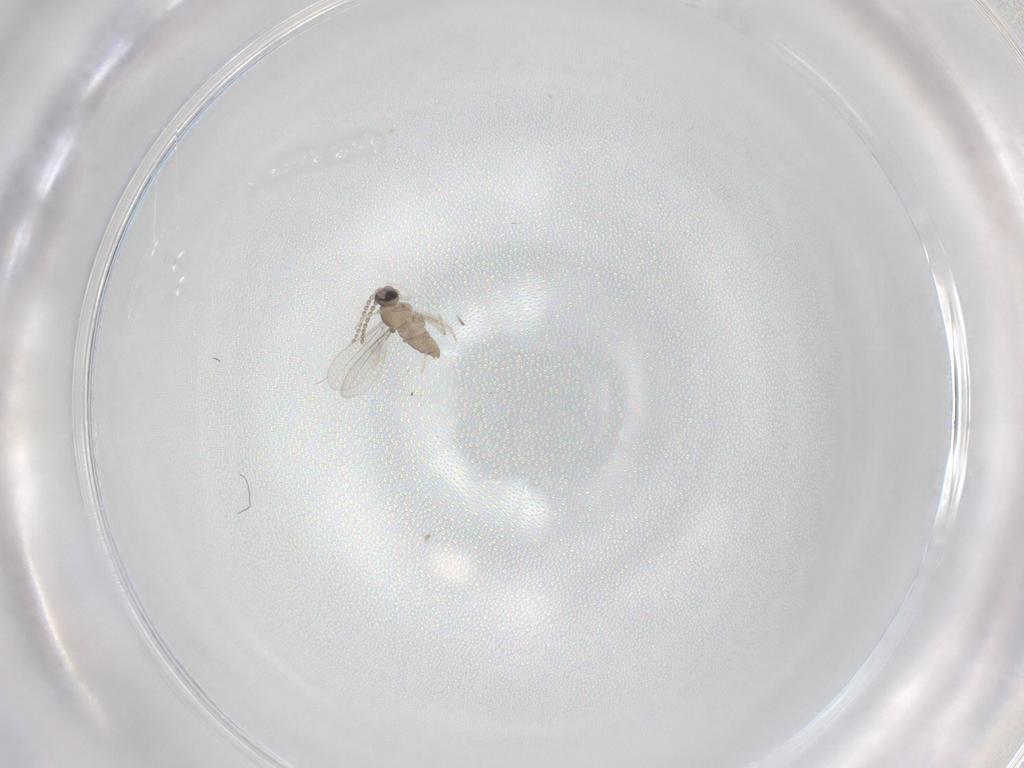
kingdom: Animalia
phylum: Arthropoda
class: Insecta
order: Diptera
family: Cecidomyiidae
